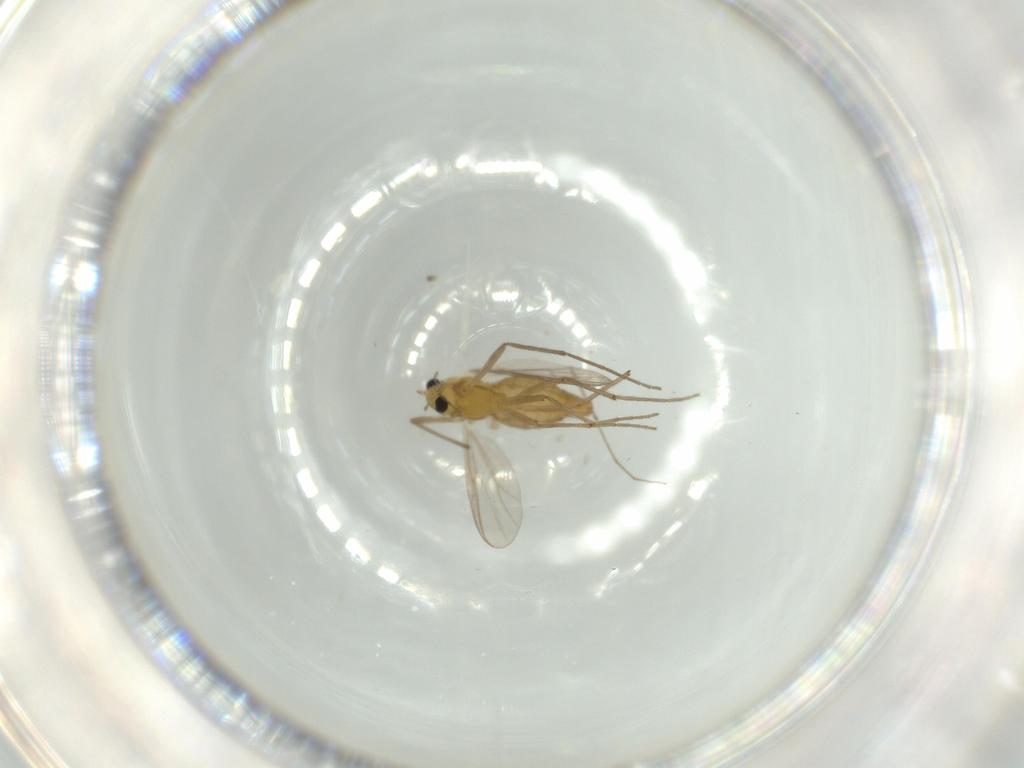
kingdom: Animalia
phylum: Arthropoda
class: Insecta
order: Diptera
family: Chironomidae
